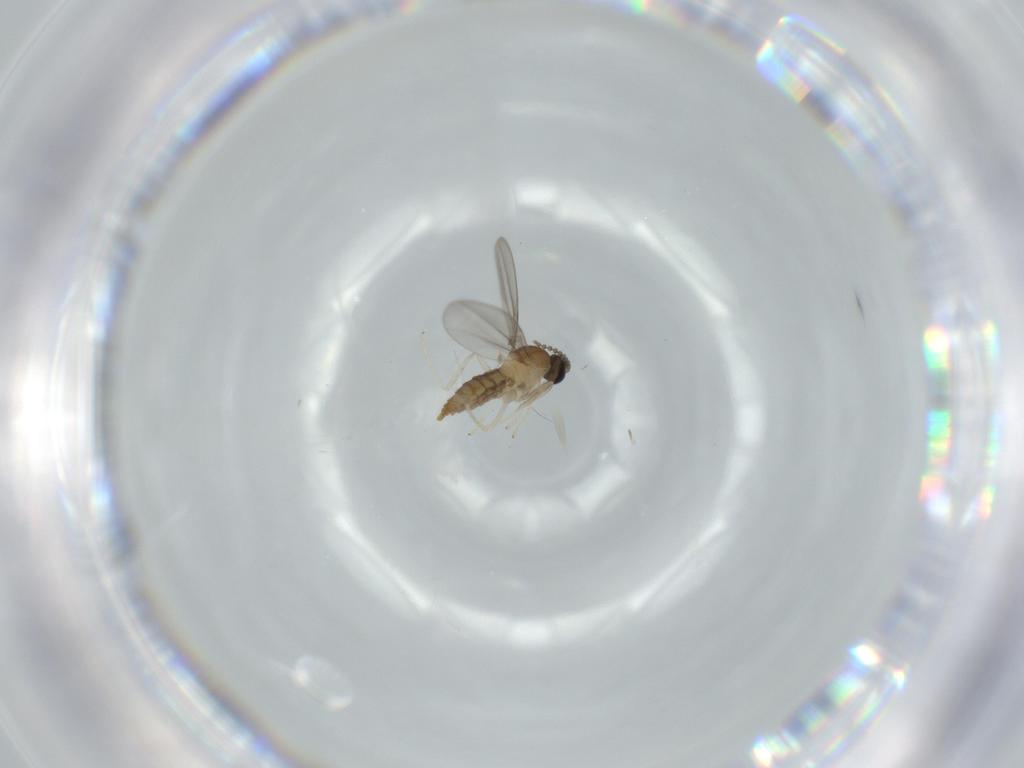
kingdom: Animalia
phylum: Arthropoda
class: Insecta
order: Diptera
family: Cecidomyiidae
